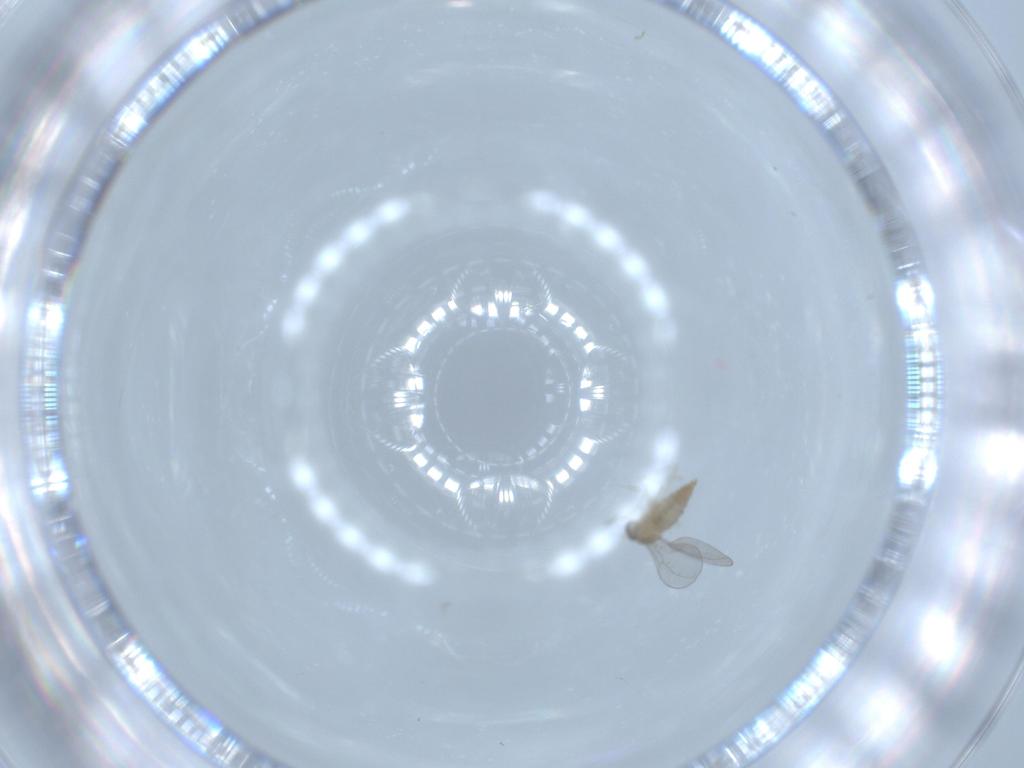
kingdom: Animalia
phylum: Arthropoda
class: Insecta
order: Diptera
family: Cecidomyiidae
